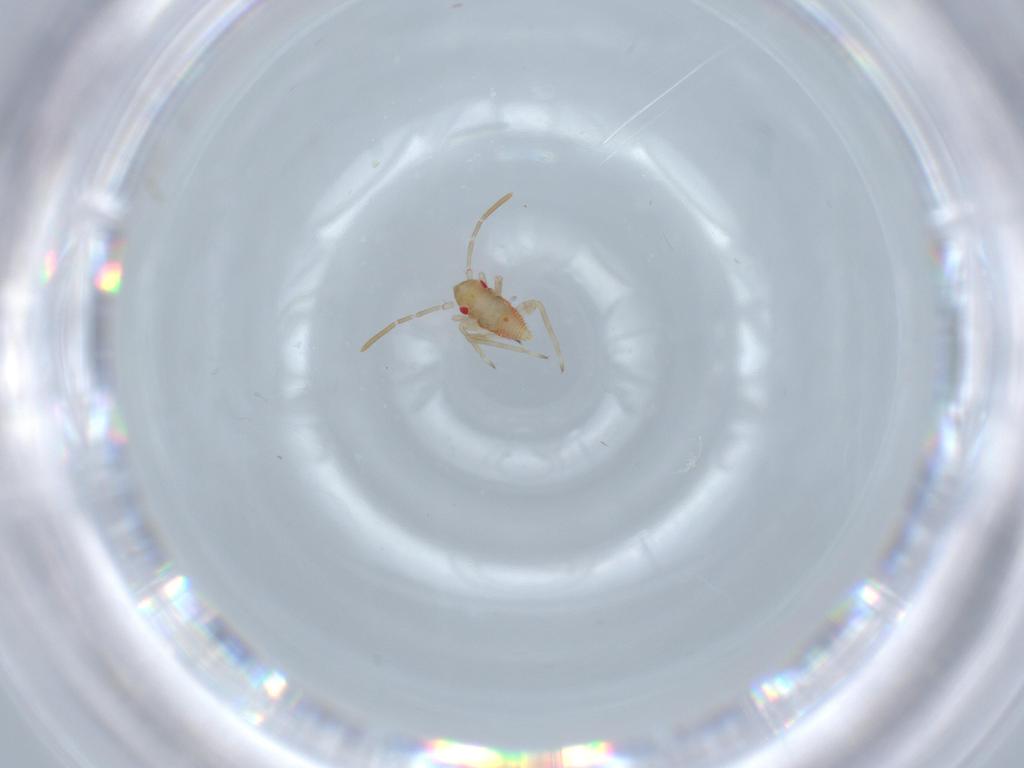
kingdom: Animalia
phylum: Arthropoda
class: Insecta
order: Hemiptera
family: Miridae
